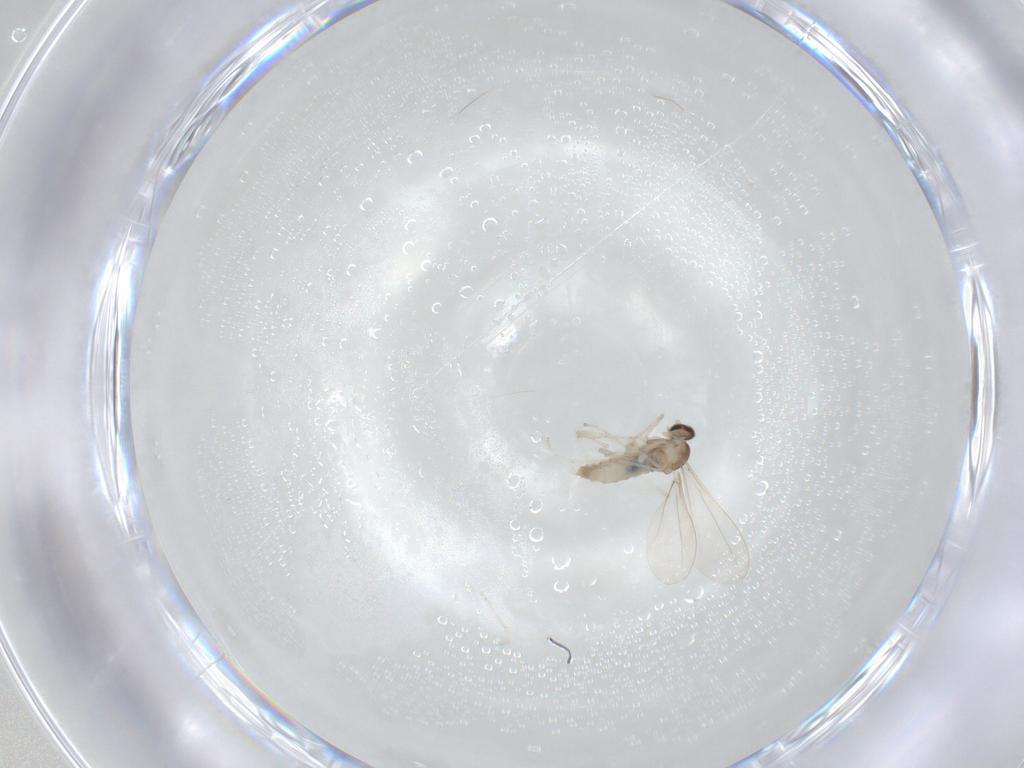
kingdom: Animalia
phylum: Arthropoda
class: Insecta
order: Diptera
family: Cecidomyiidae
